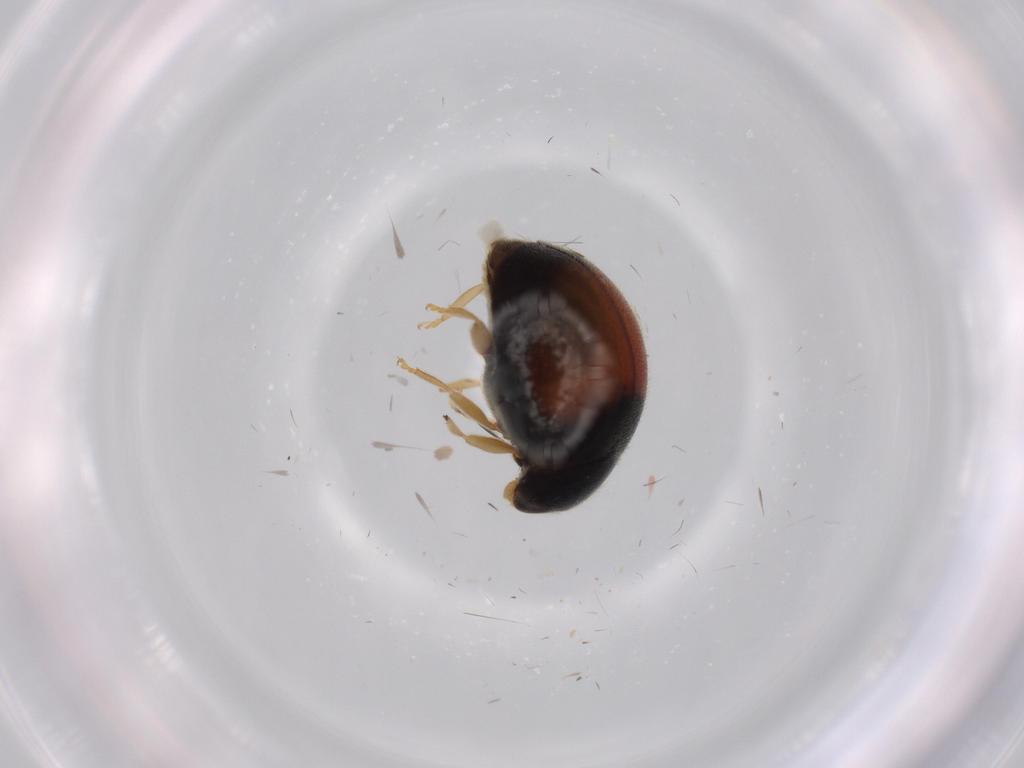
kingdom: Animalia
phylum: Arthropoda
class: Insecta
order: Coleoptera
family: Coccinellidae
